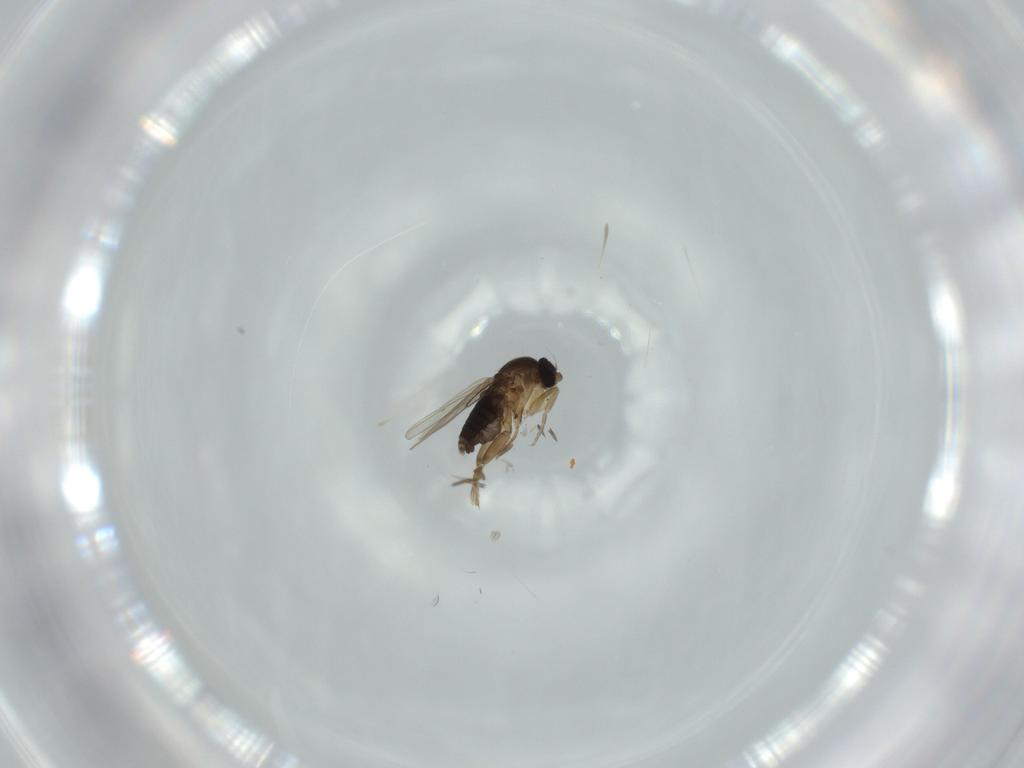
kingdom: Animalia
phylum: Arthropoda
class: Insecta
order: Diptera
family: Phoridae
